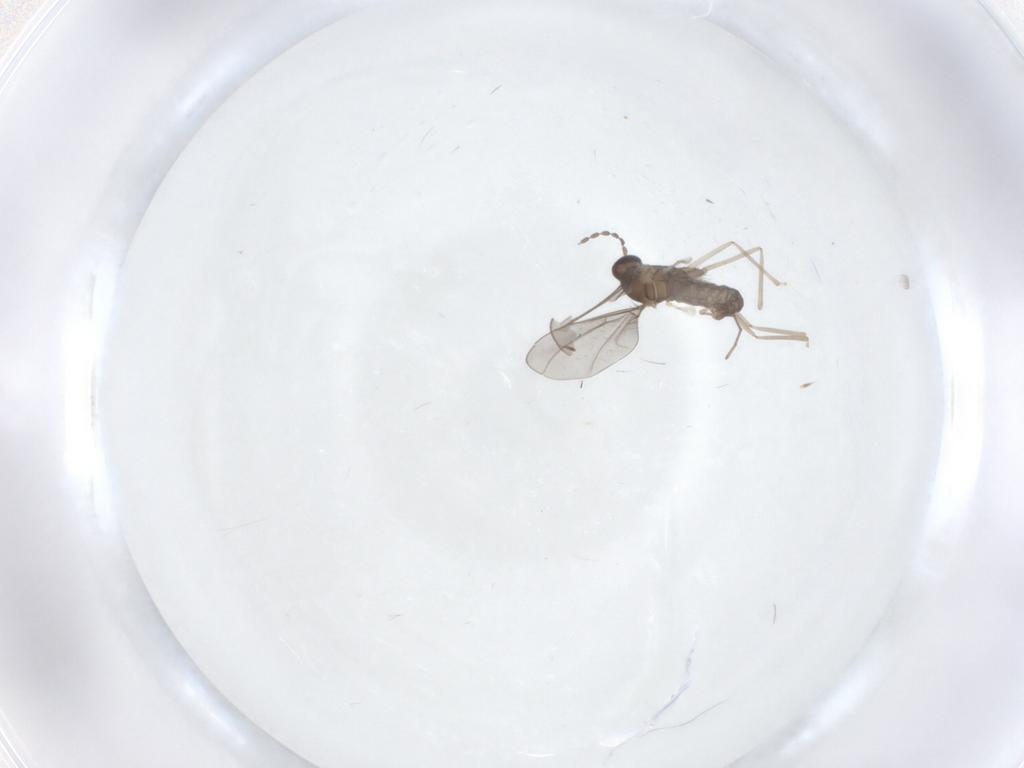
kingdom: Animalia
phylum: Arthropoda
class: Insecta
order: Diptera
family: Cecidomyiidae
